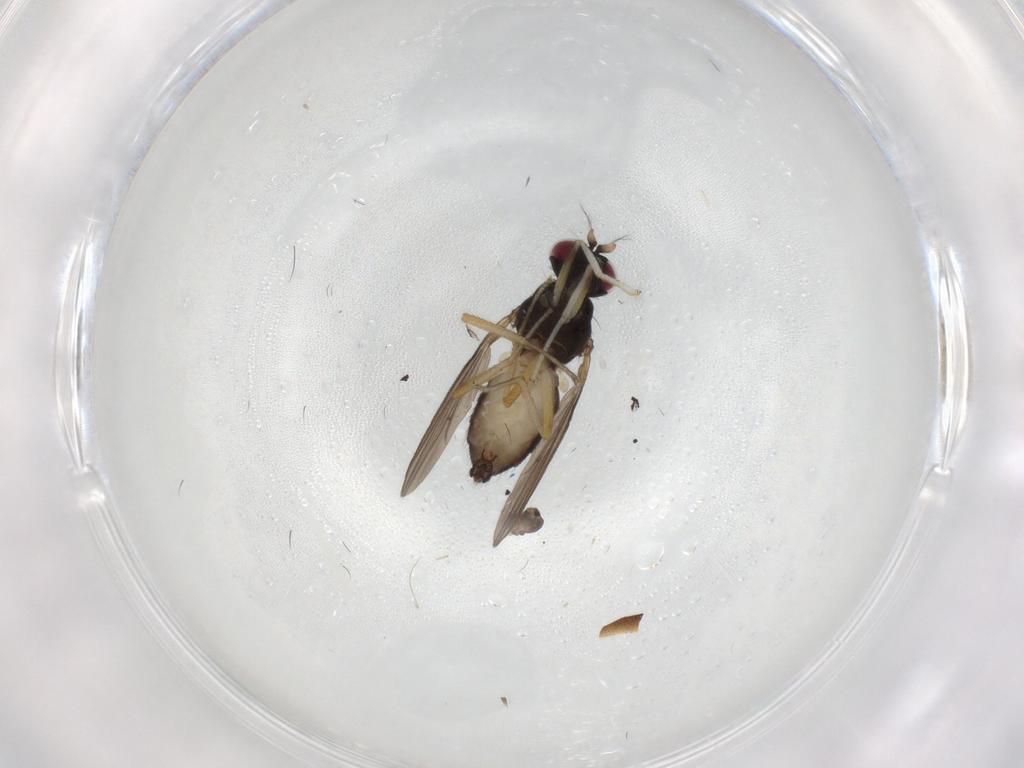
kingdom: Animalia
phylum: Arthropoda
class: Insecta
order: Diptera
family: Cecidomyiidae
